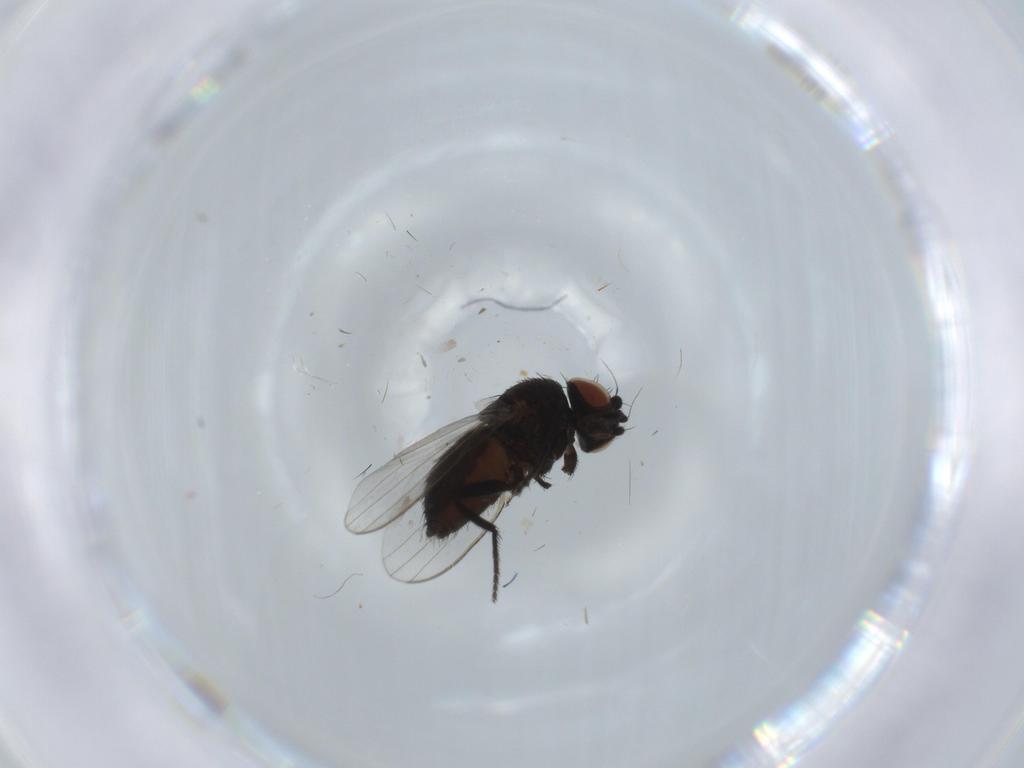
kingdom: Animalia
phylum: Arthropoda
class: Insecta
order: Diptera
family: Milichiidae
